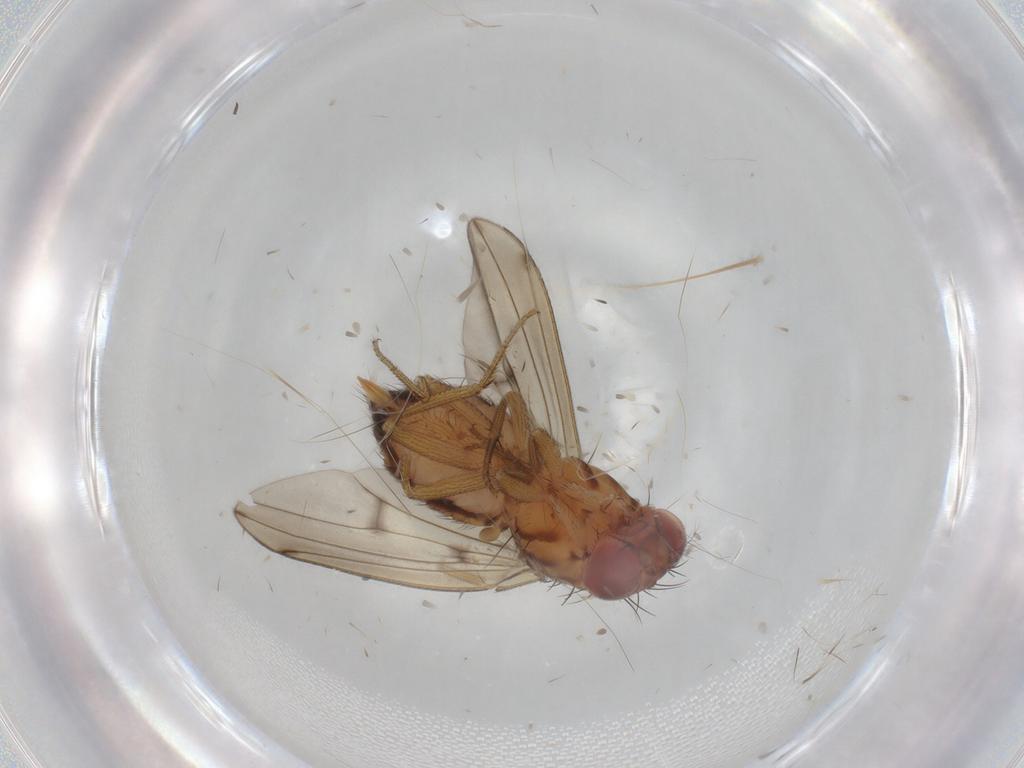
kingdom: Animalia
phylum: Arthropoda
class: Insecta
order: Diptera
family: Drosophilidae
